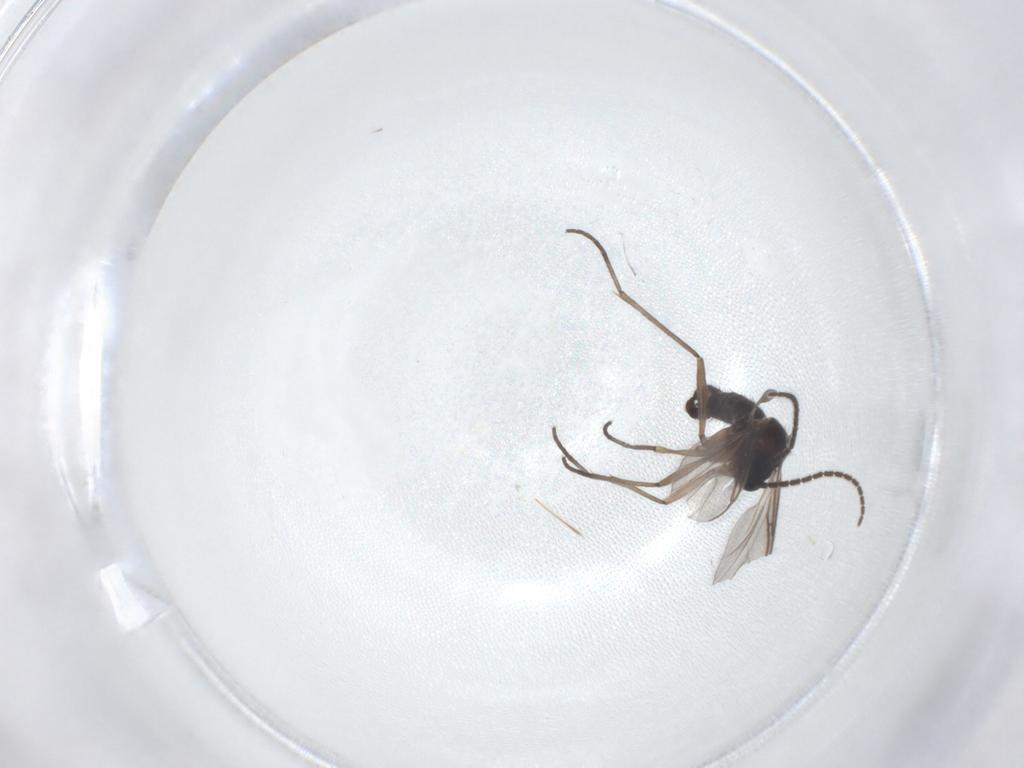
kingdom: Animalia
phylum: Arthropoda
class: Insecta
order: Diptera
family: Sciaridae
